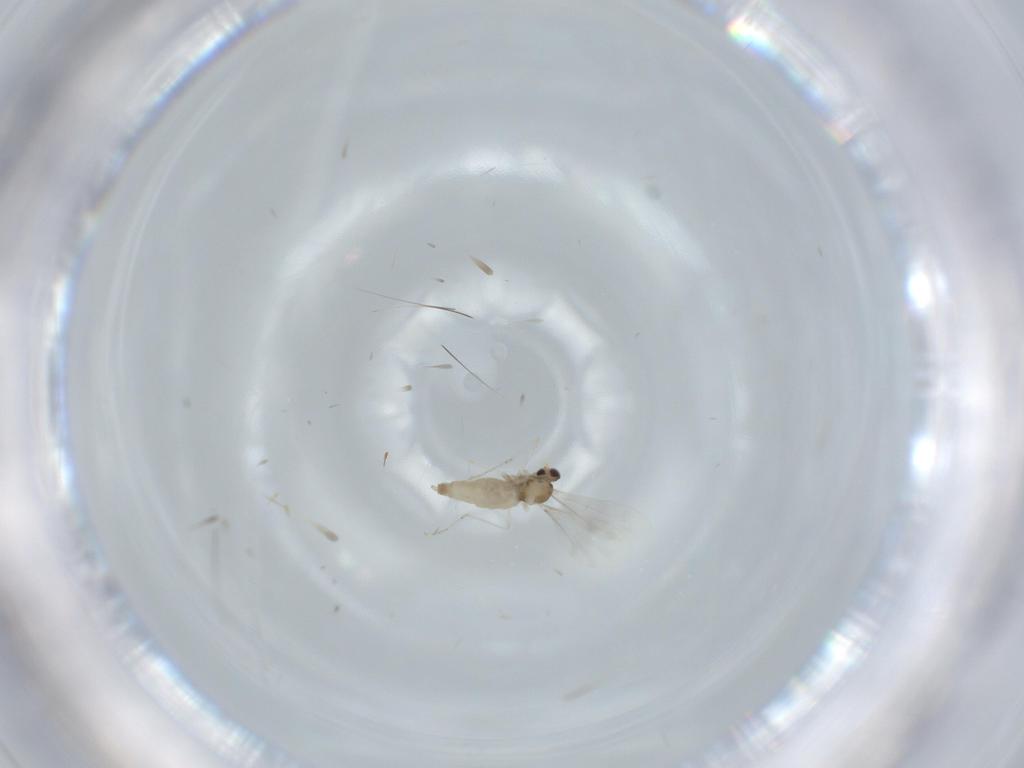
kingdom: Animalia
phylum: Arthropoda
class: Insecta
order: Diptera
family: Cecidomyiidae
